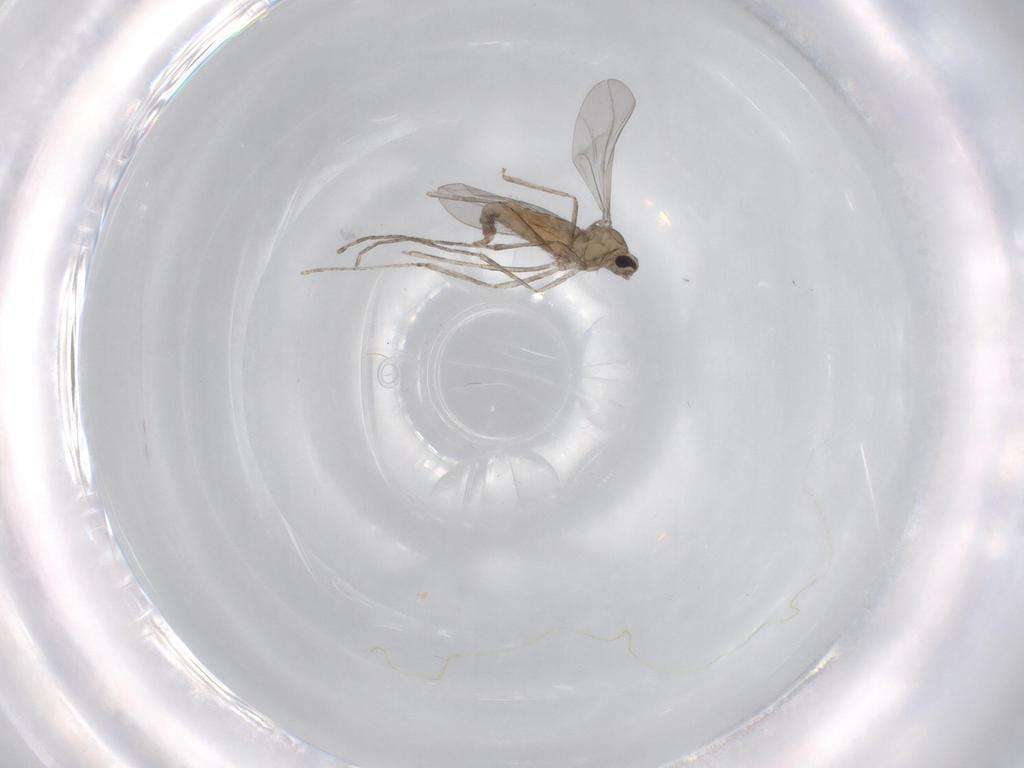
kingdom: Animalia
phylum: Arthropoda
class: Insecta
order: Diptera
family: Cecidomyiidae
